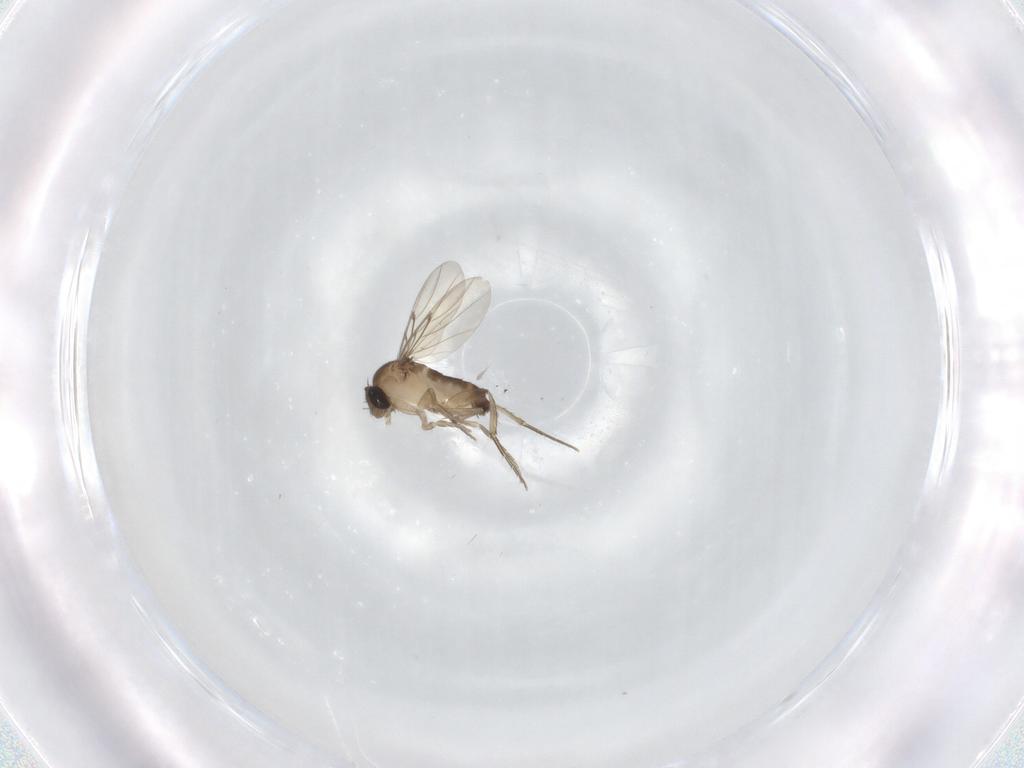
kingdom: Animalia
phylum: Arthropoda
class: Insecta
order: Diptera
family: Phoridae
